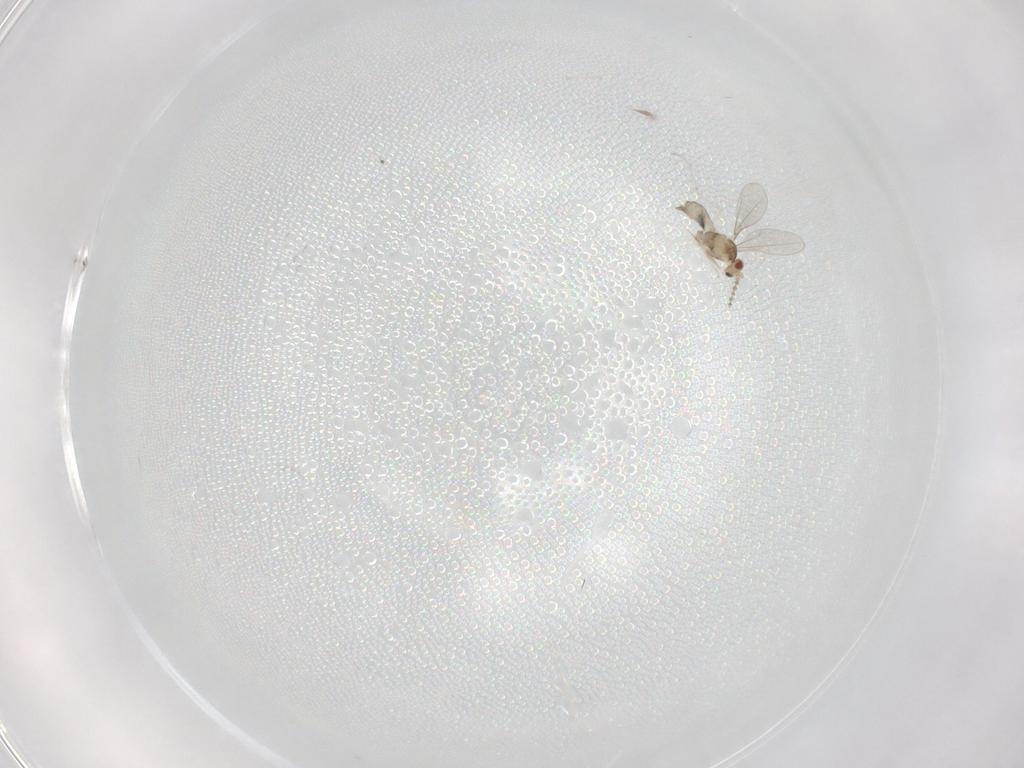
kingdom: Animalia
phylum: Arthropoda
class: Insecta
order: Diptera
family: Cecidomyiidae
